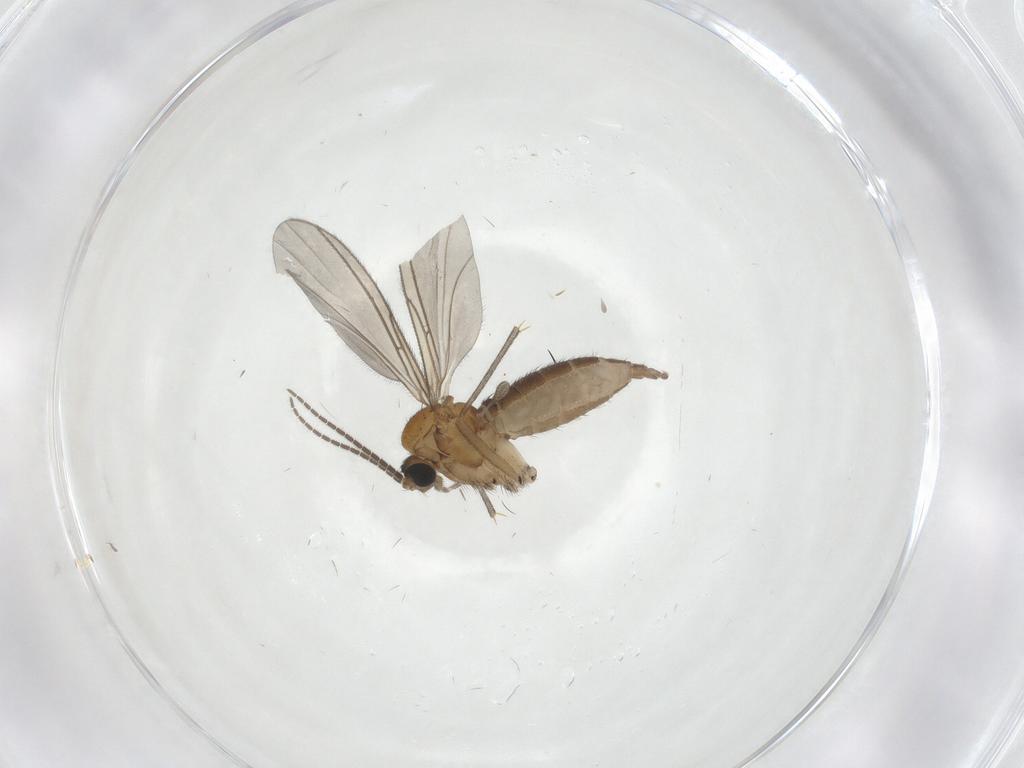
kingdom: Animalia
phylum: Arthropoda
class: Insecta
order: Diptera
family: Sciaridae
